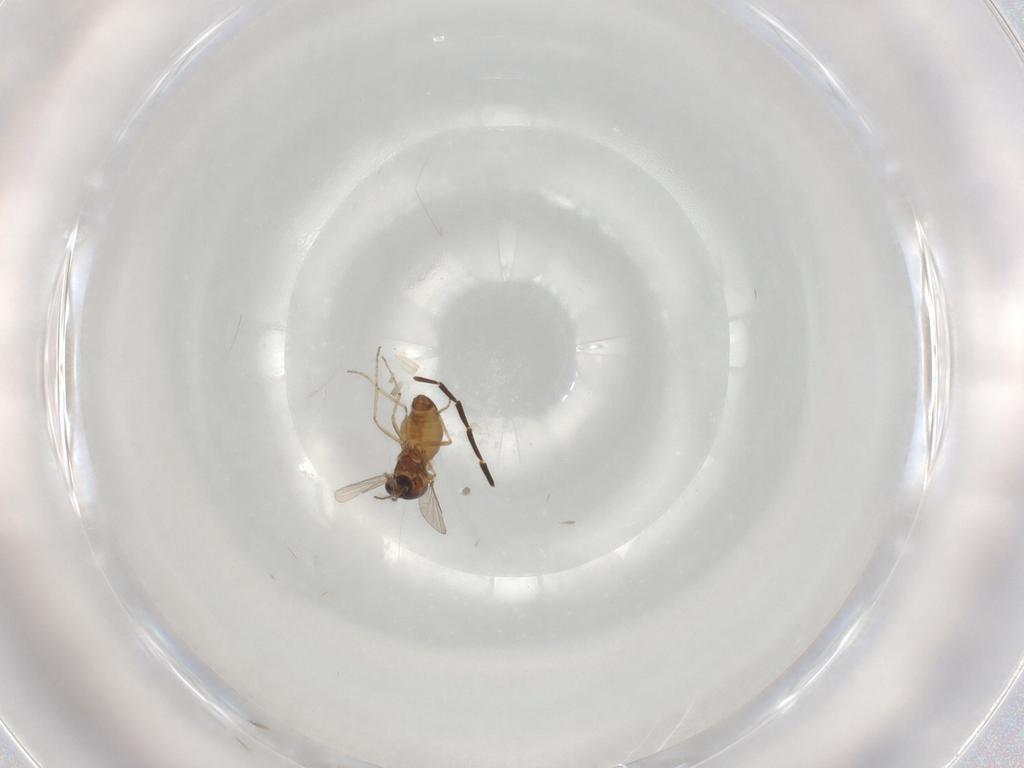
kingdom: Animalia
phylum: Arthropoda
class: Insecta
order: Diptera
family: Ceratopogonidae
